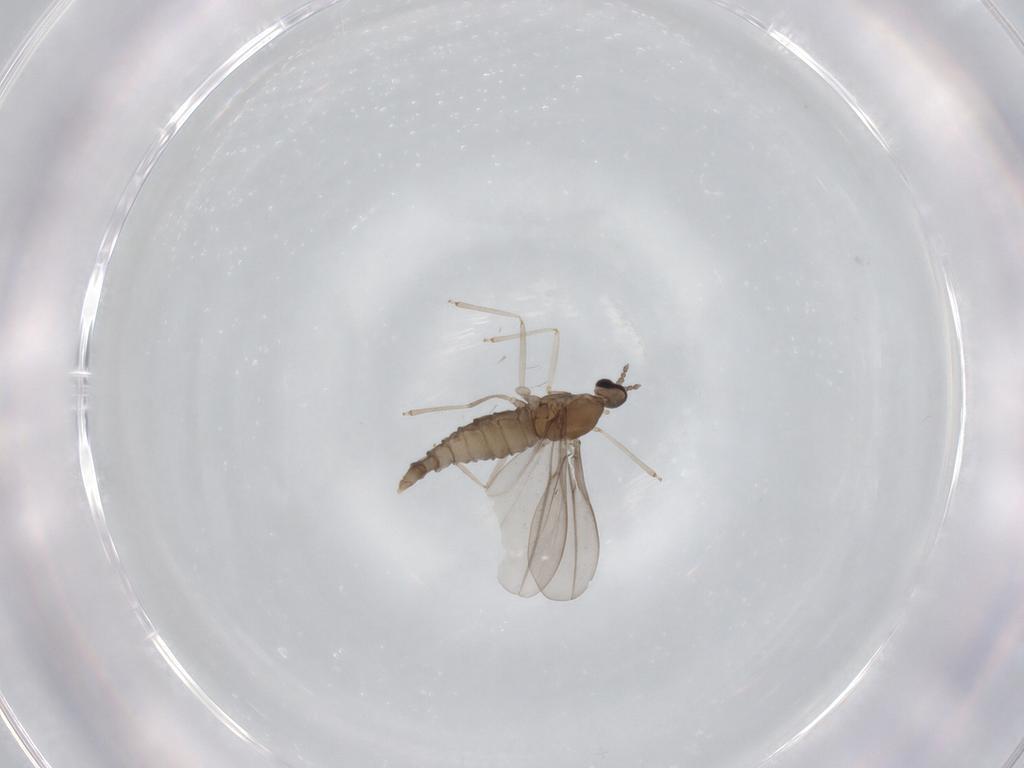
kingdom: Animalia
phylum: Arthropoda
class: Insecta
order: Diptera
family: Cecidomyiidae
